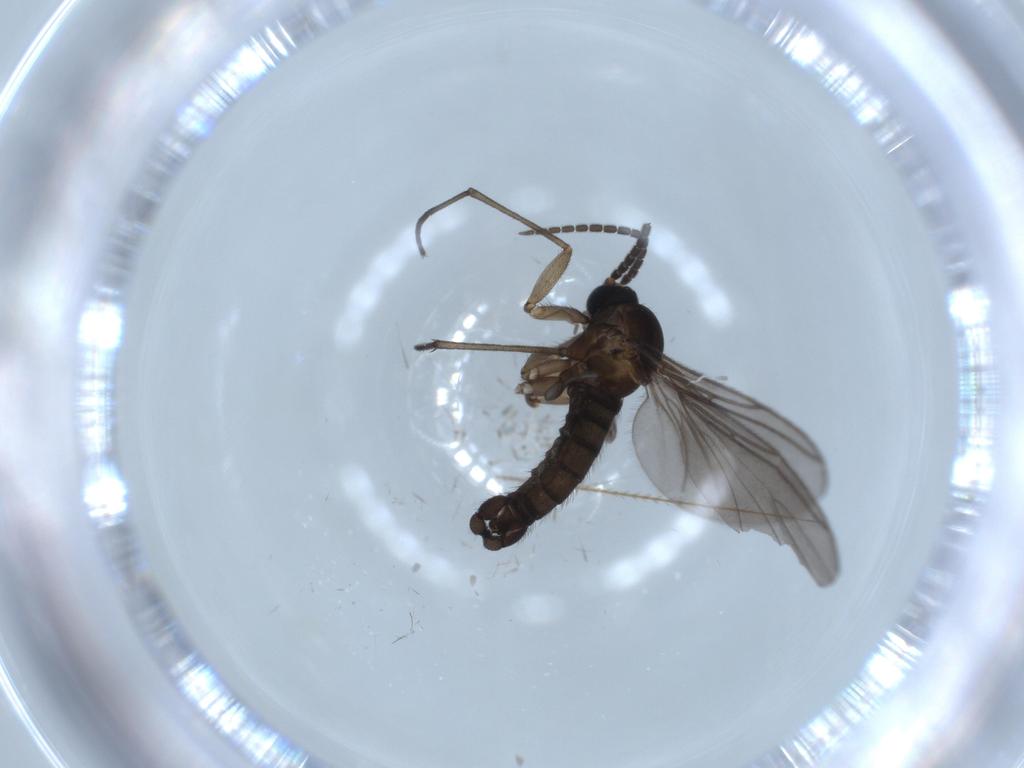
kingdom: Animalia
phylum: Arthropoda
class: Insecta
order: Diptera
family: Sciaridae
